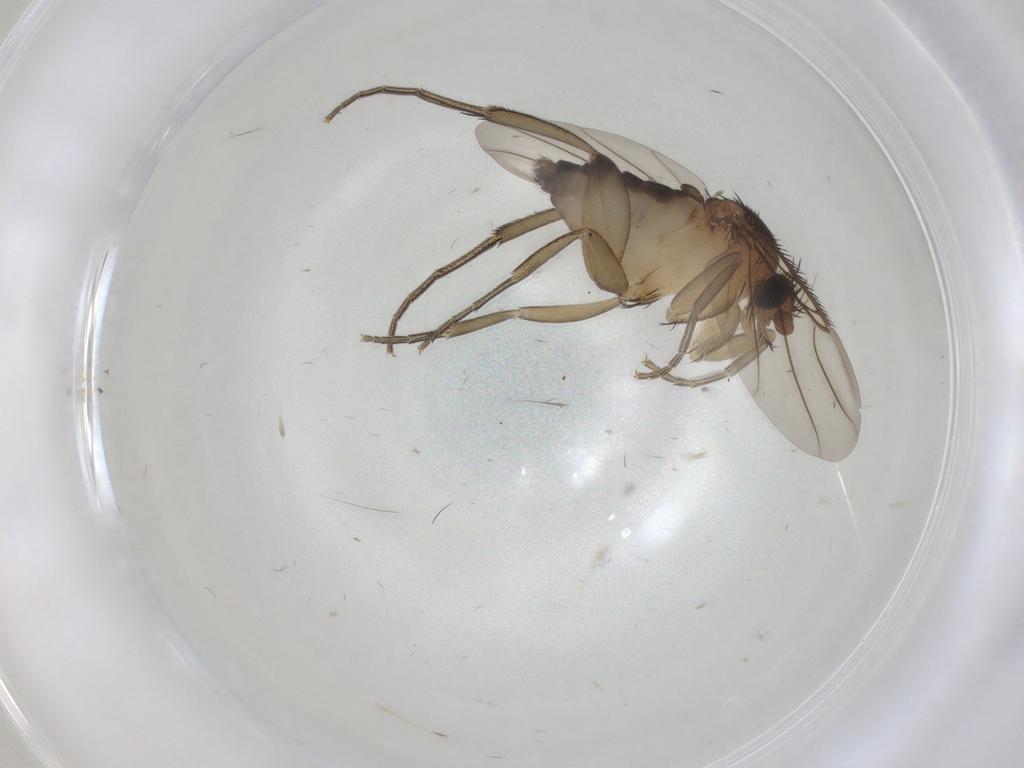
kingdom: Animalia
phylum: Arthropoda
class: Insecta
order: Diptera
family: Phoridae
